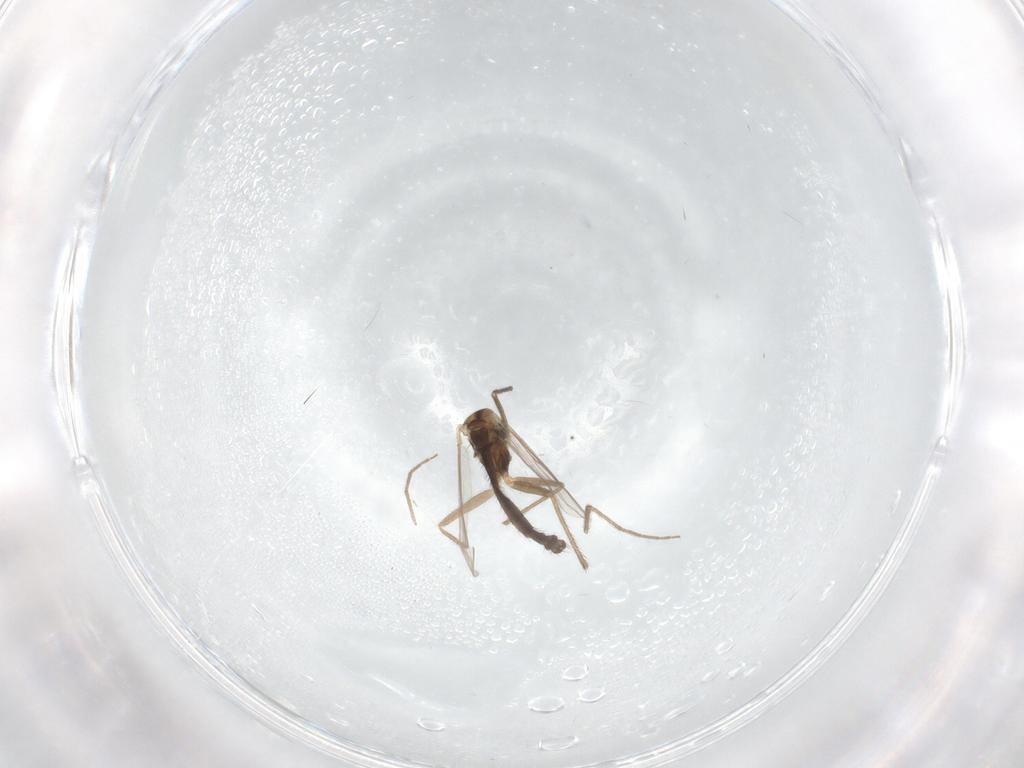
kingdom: Animalia
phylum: Arthropoda
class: Insecta
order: Diptera
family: Chironomidae
